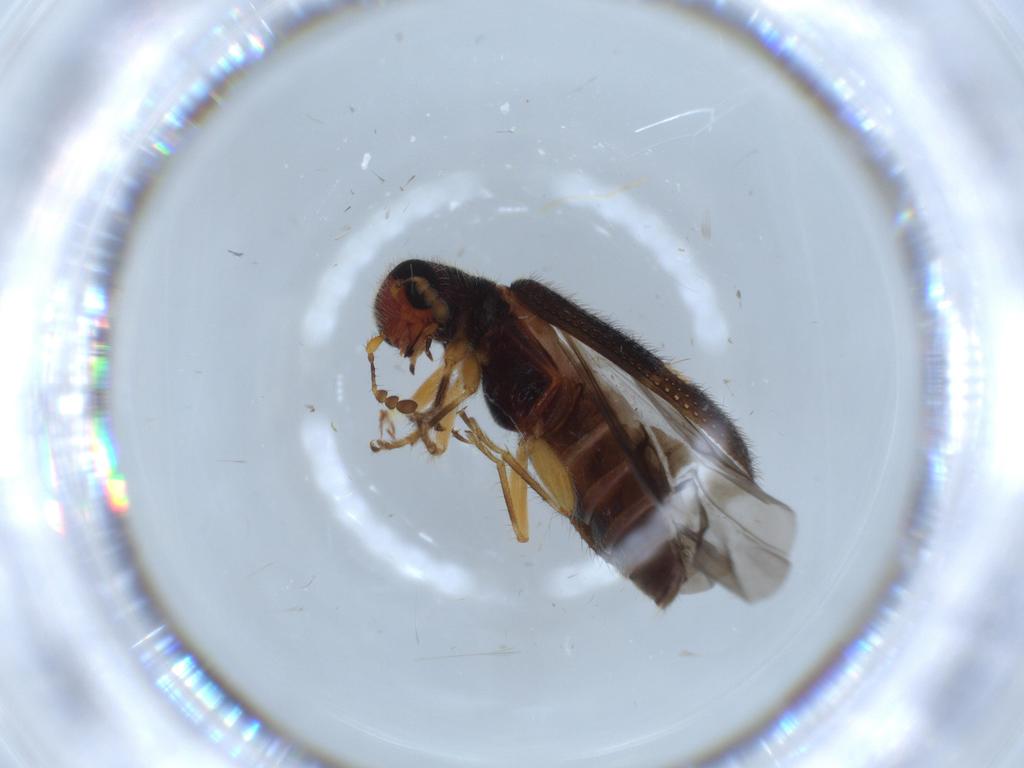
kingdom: Animalia
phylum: Arthropoda
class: Insecta
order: Coleoptera
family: Cleridae
